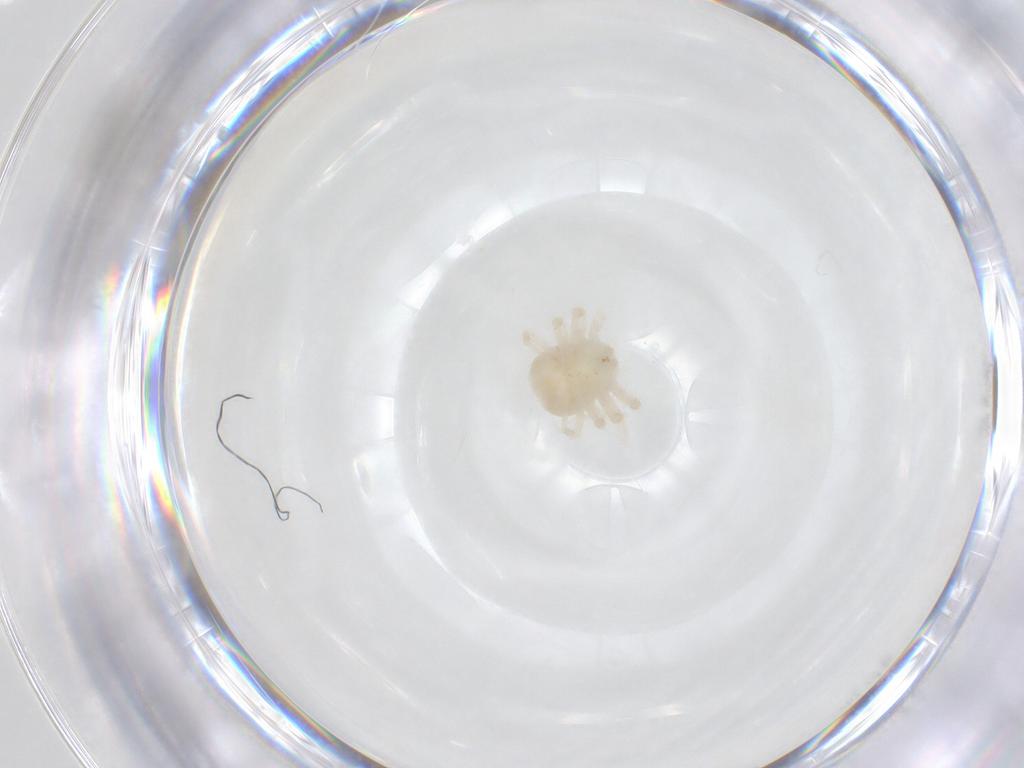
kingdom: Animalia
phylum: Arthropoda
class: Arachnida
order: Trombidiformes
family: Anystidae
